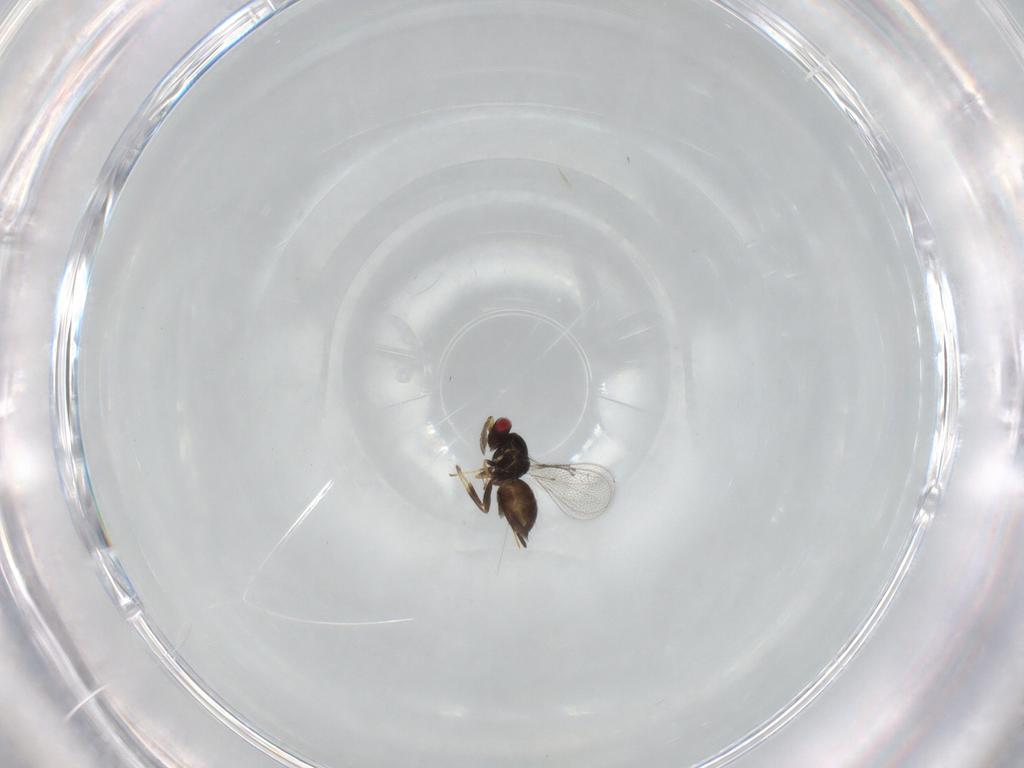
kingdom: Animalia
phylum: Arthropoda
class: Insecta
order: Hymenoptera
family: Eulophidae
